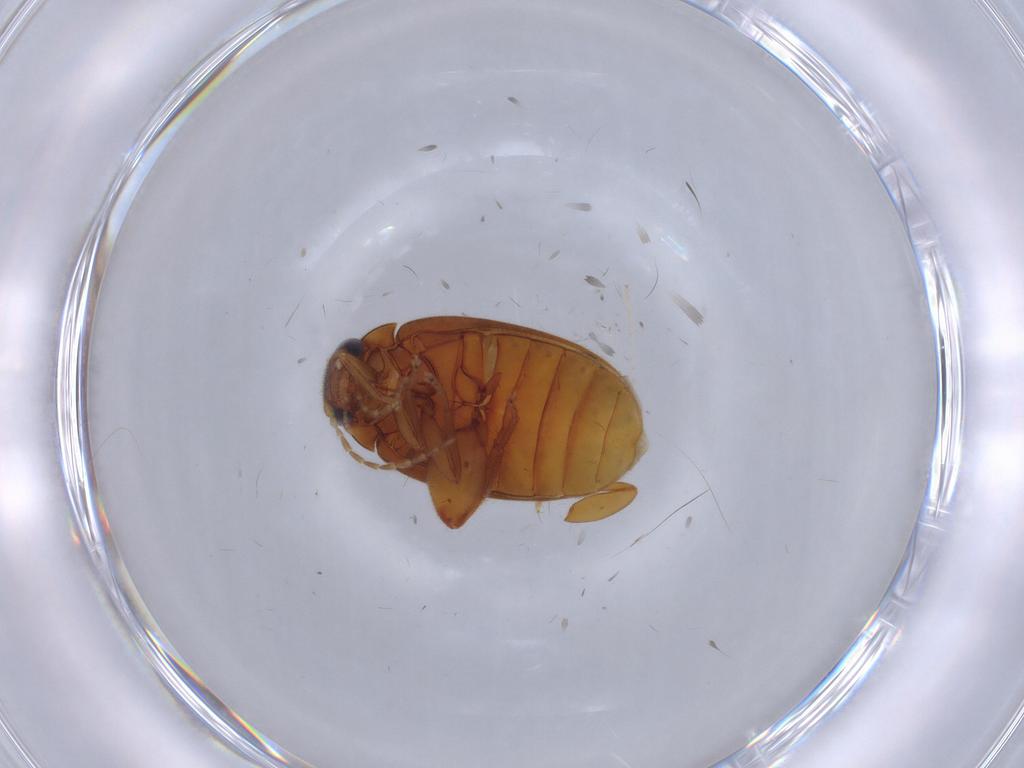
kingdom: Animalia
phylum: Arthropoda
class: Insecta
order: Coleoptera
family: Scirtidae
